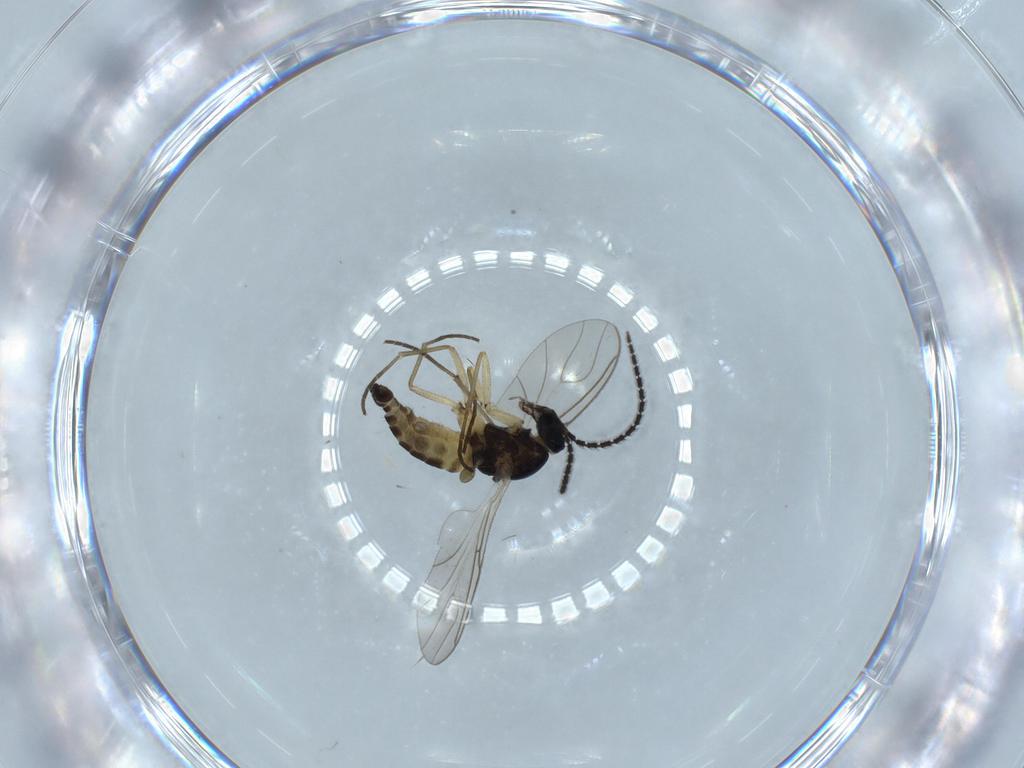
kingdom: Animalia
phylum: Arthropoda
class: Insecta
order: Diptera
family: Sciaridae
